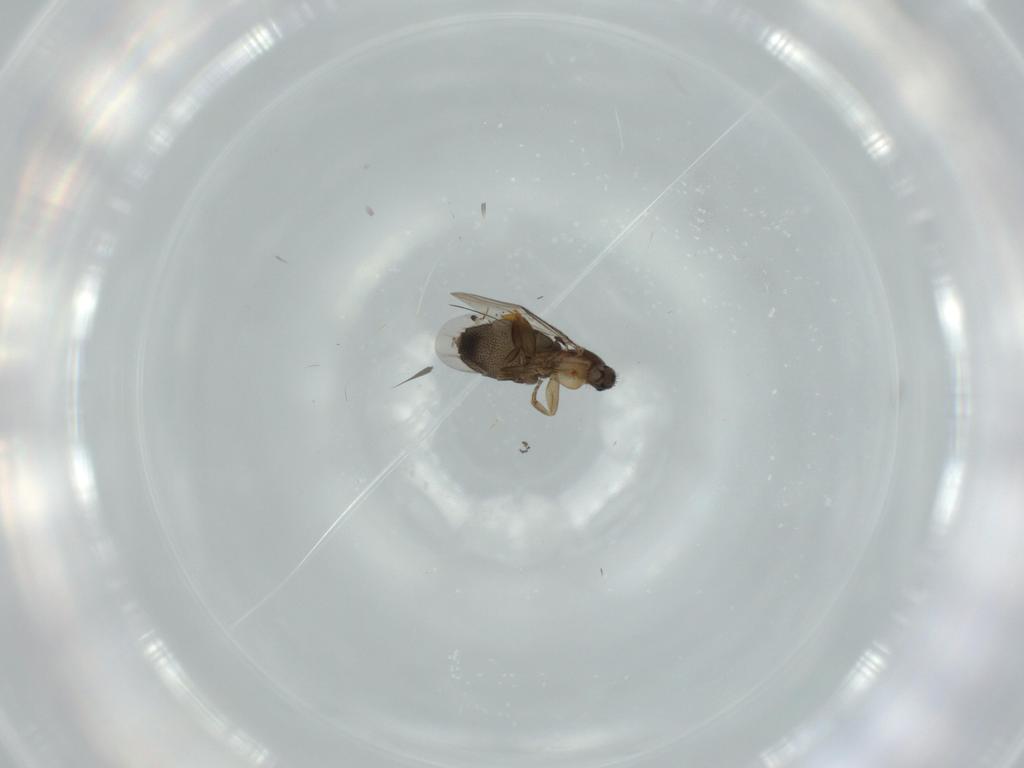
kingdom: Animalia
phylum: Arthropoda
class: Insecta
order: Diptera
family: Phoridae
